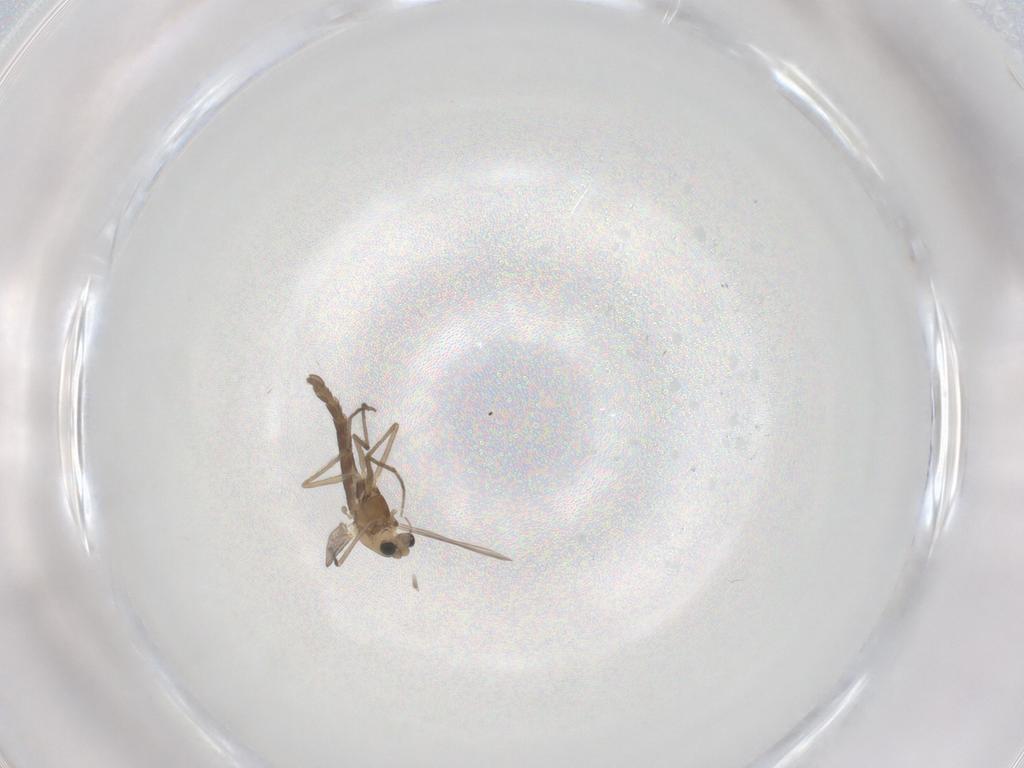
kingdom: Animalia
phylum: Arthropoda
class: Insecta
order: Diptera
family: Chironomidae
